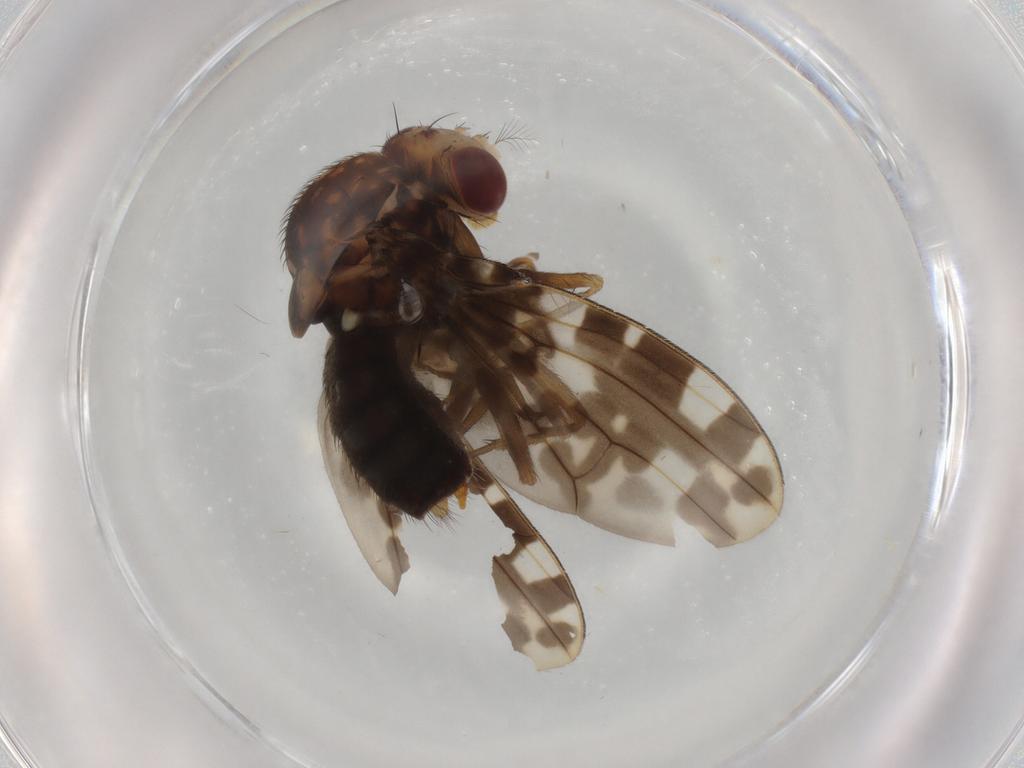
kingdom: Animalia
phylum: Arthropoda
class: Insecta
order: Diptera
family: Drosophilidae
